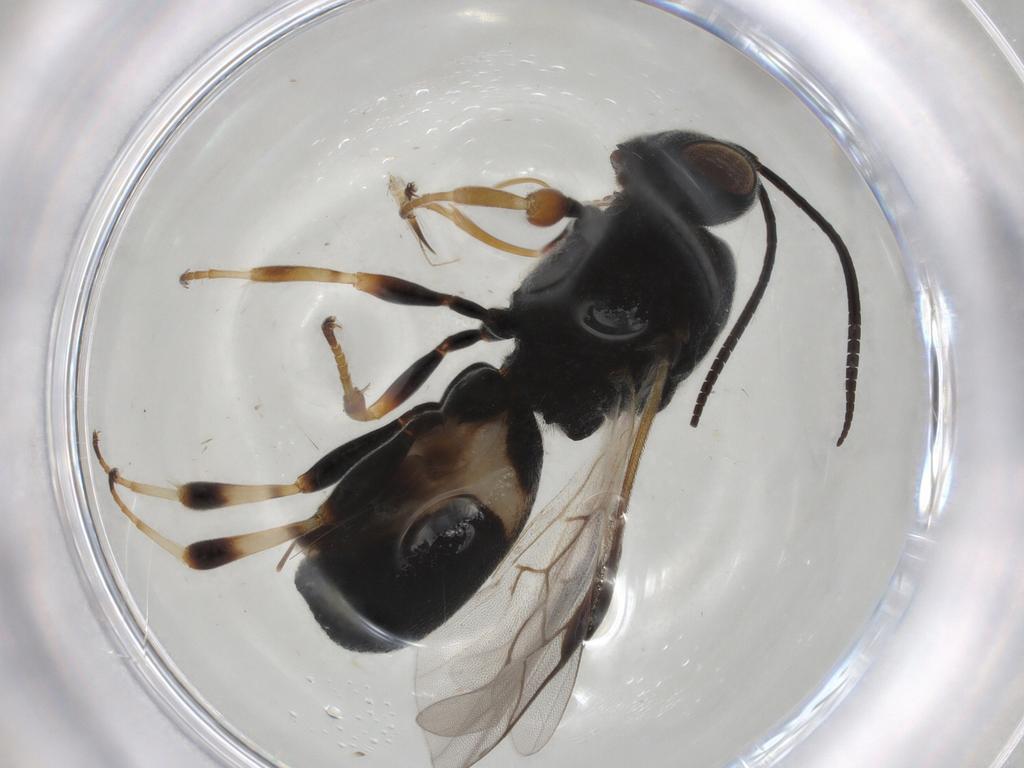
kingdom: Animalia
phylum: Arthropoda
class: Insecta
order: Hymenoptera
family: Braconidae
